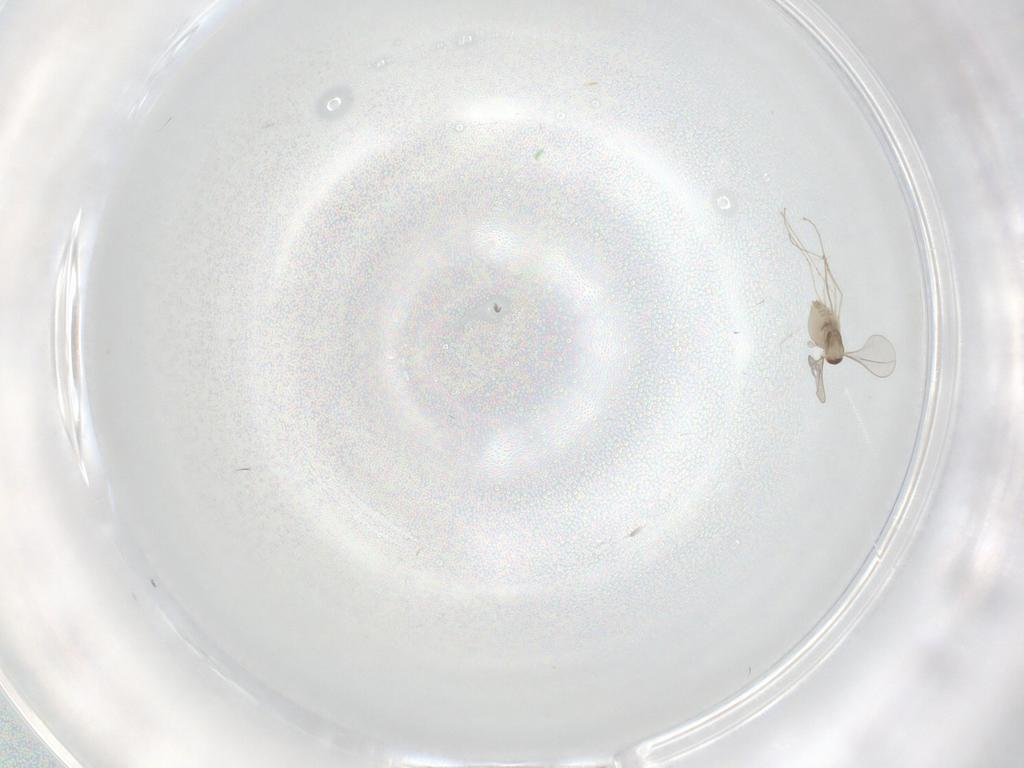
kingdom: Animalia
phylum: Arthropoda
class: Insecta
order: Diptera
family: Cecidomyiidae
